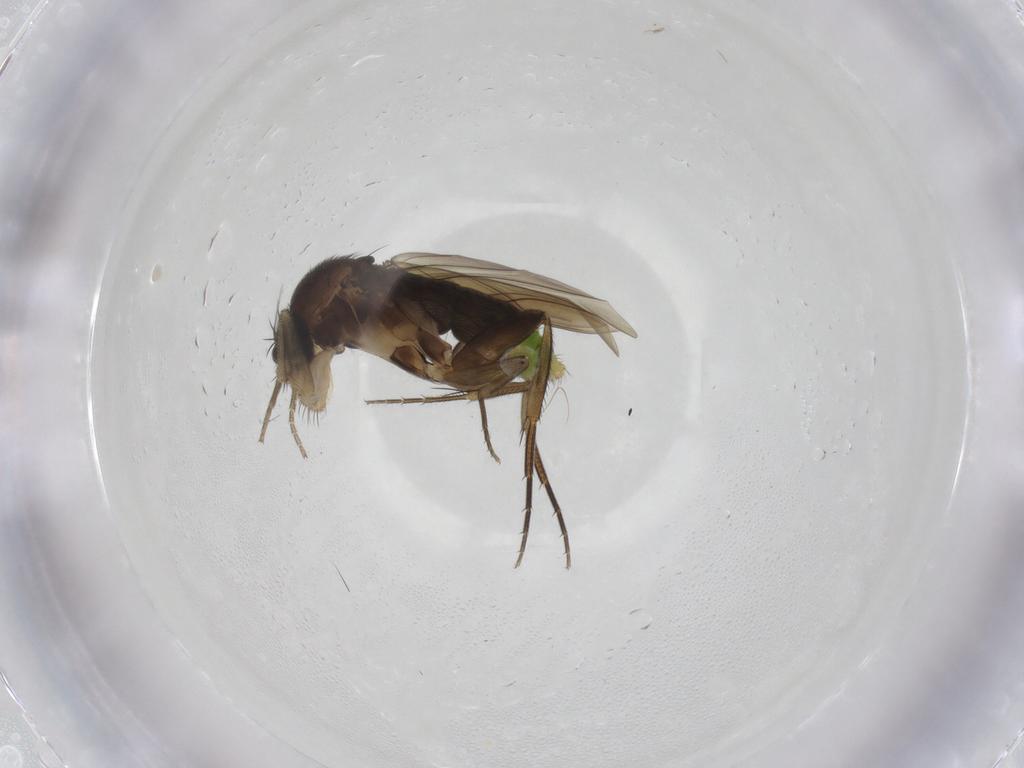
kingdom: Animalia
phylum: Arthropoda
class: Insecta
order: Diptera
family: Phoridae
